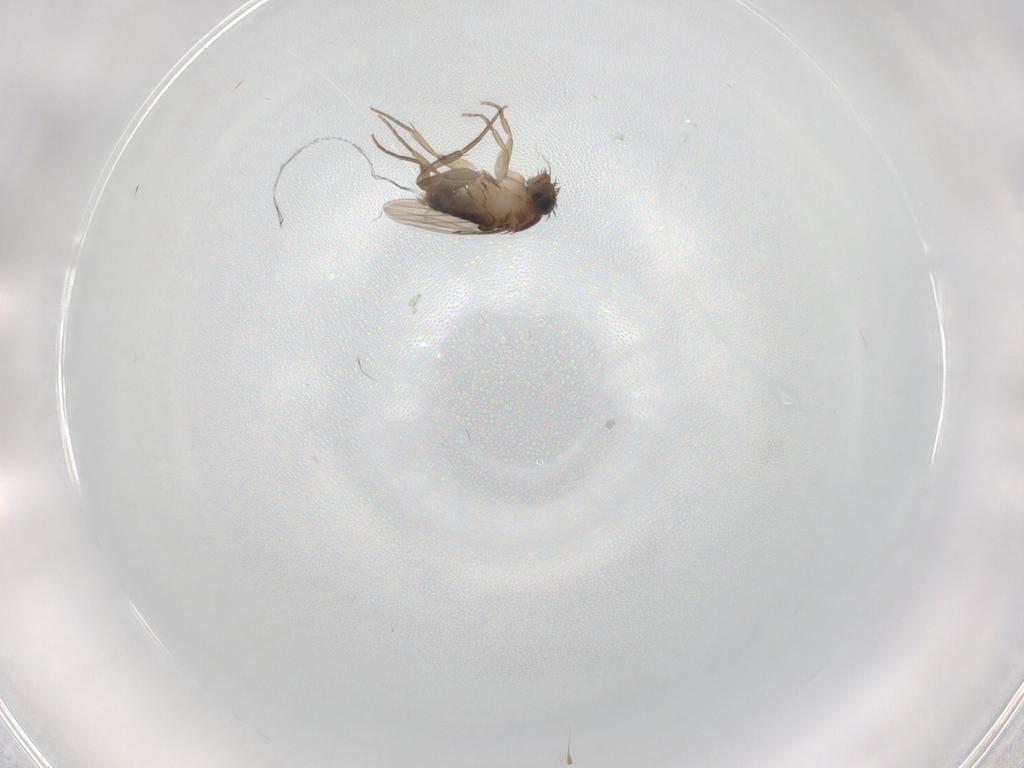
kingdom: Animalia
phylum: Arthropoda
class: Insecta
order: Diptera
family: Phoridae
